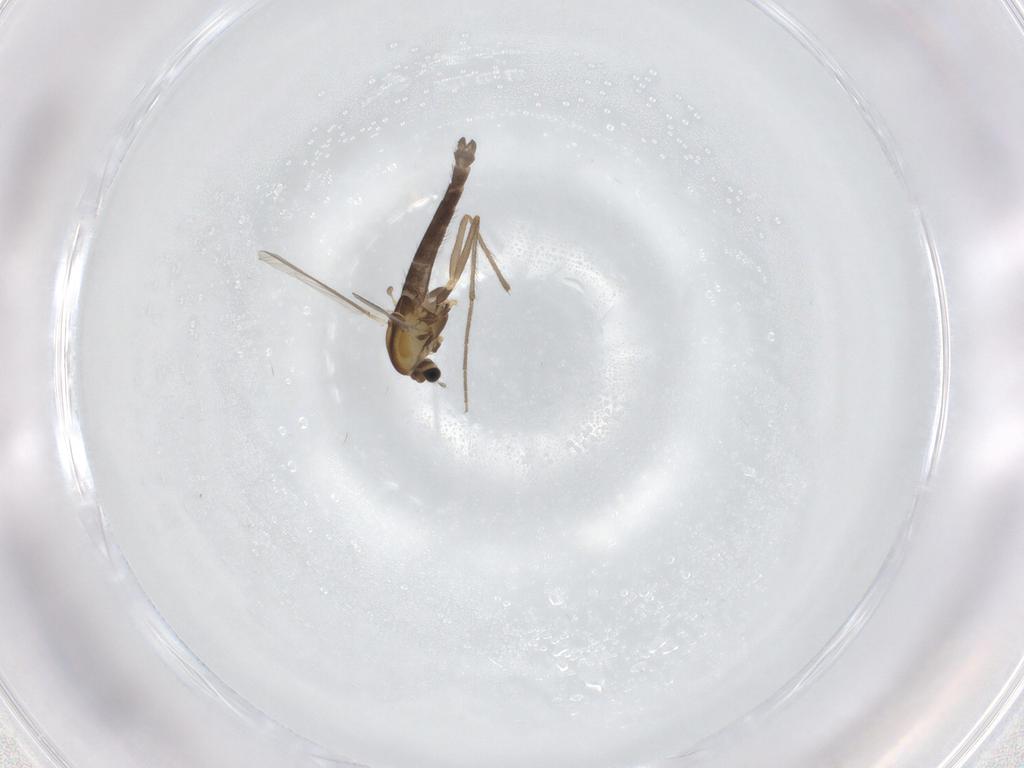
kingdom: Animalia
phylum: Arthropoda
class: Insecta
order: Diptera
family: Chironomidae
